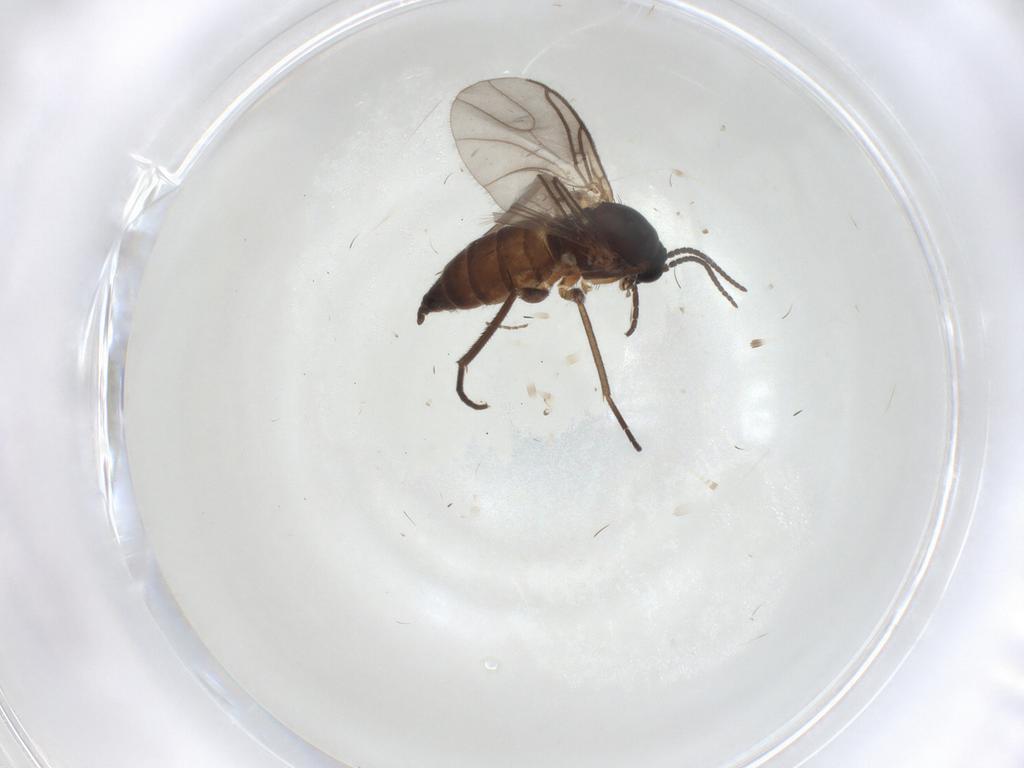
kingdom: Animalia
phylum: Arthropoda
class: Insecta
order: Diptera
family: Sciaridae
